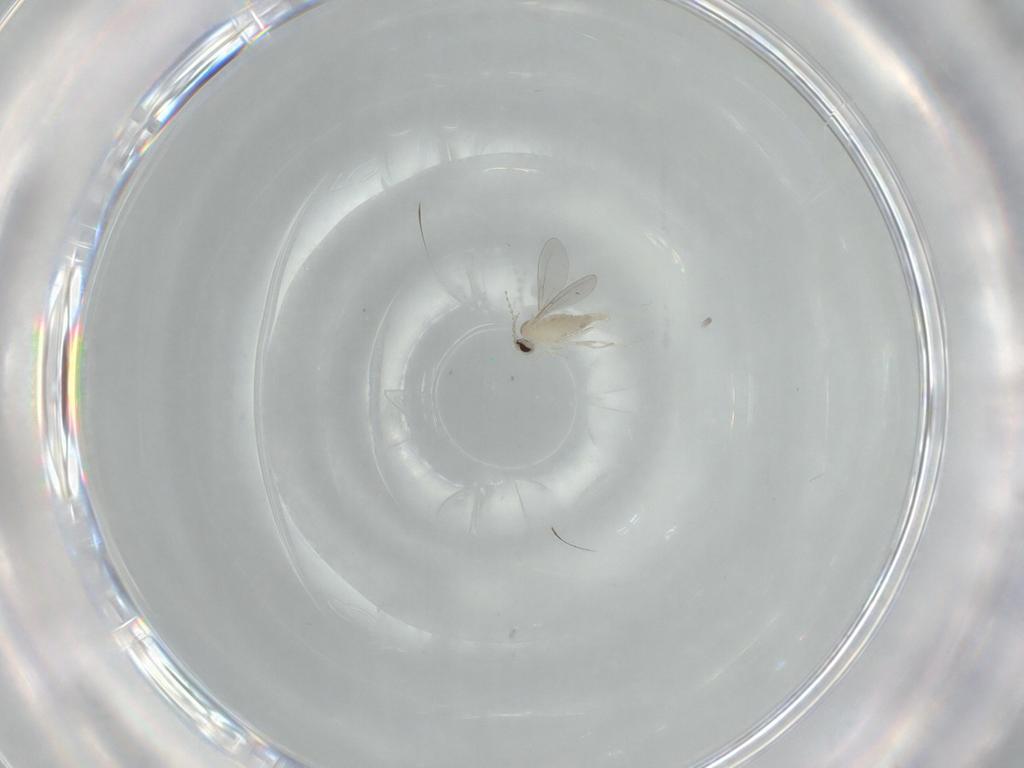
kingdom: Animalia
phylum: Arthropoda
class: Insecta
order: Diptera
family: Cecidomyiidae
